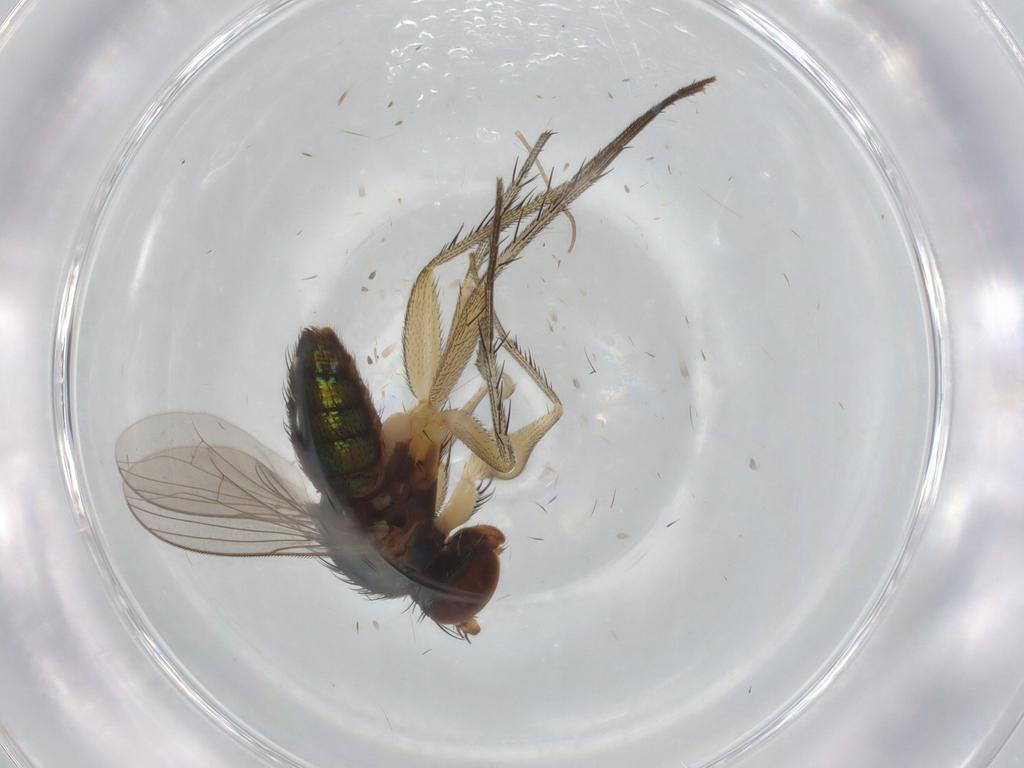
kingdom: Animalia
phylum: Arthropoda
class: Insecta
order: Diptera
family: Dolichopodidae
